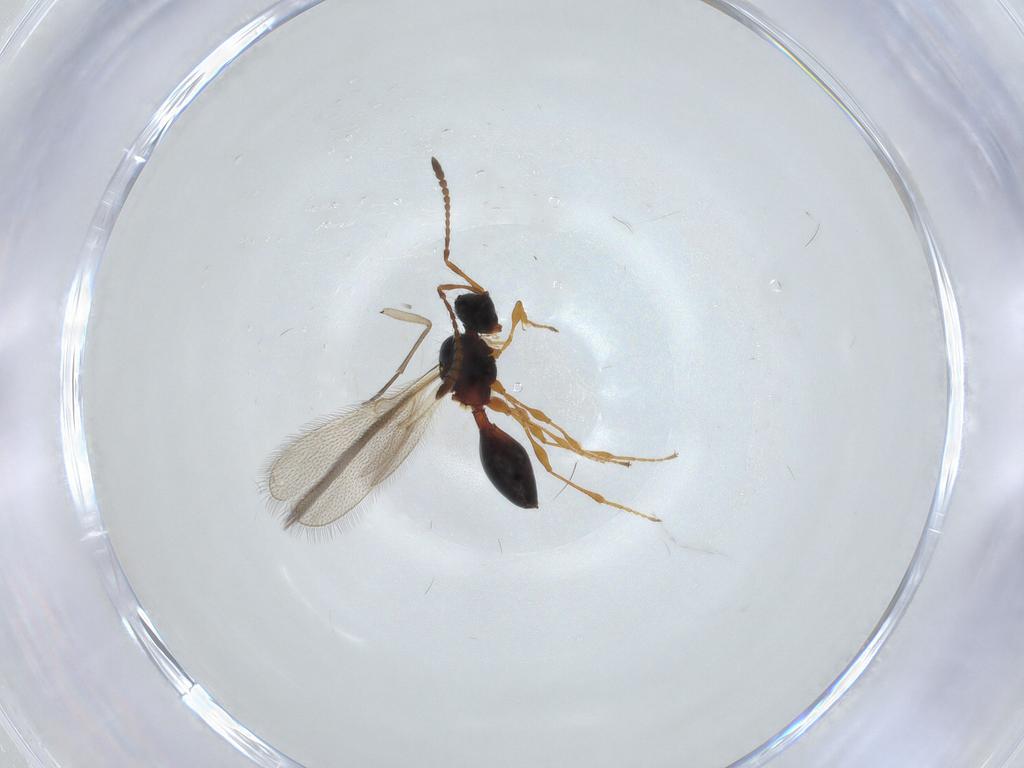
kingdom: Animalia
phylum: Arthropoda
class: Insecta
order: Hymenoptera
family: Diapriidae
